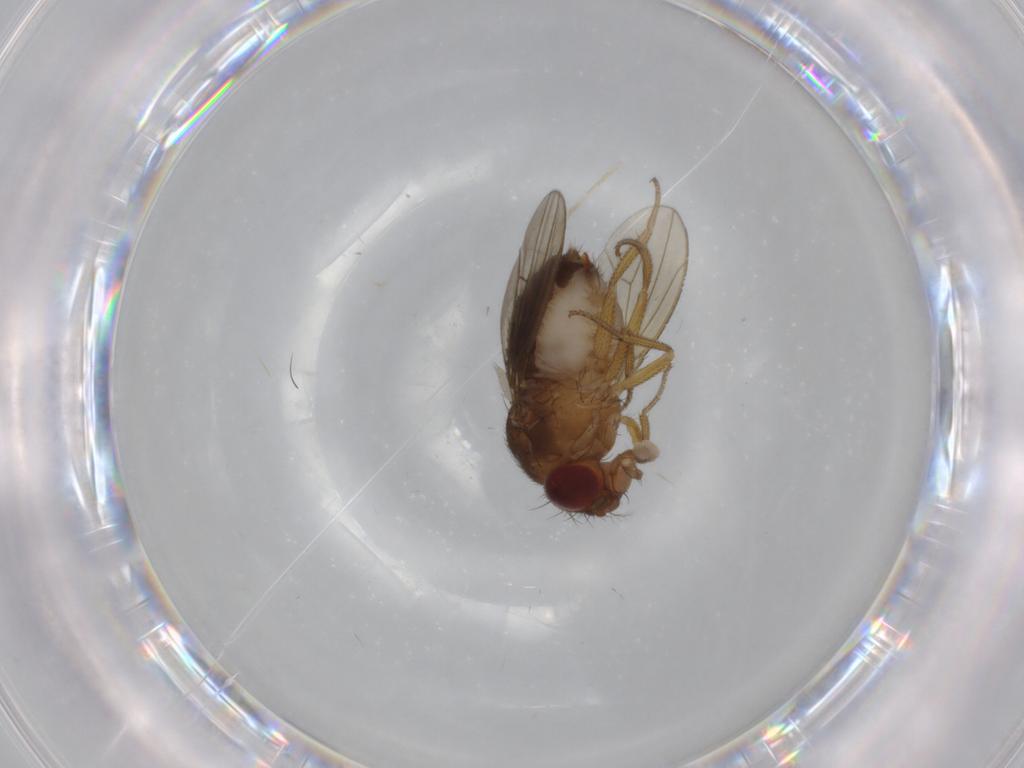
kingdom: Animalia
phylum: Arthropoda
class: Insecta
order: Diptera
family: Drosophilidae
